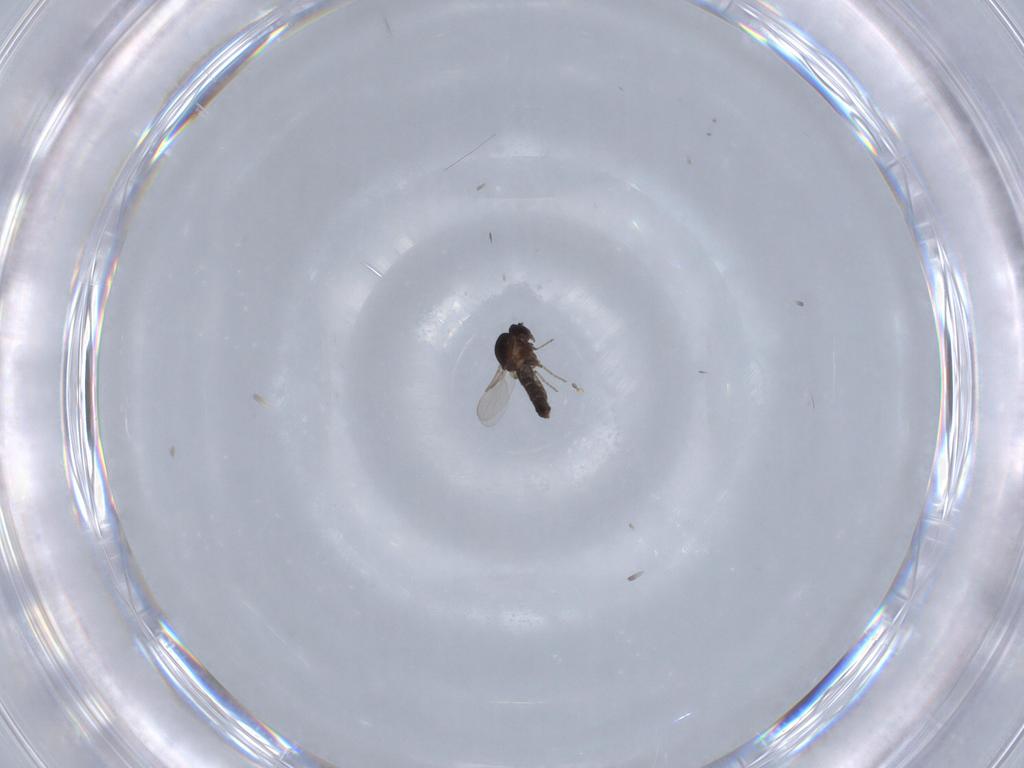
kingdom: Animalia
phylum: Arthropoda
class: Insecta
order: Diptera
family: Ceratopogonidae
